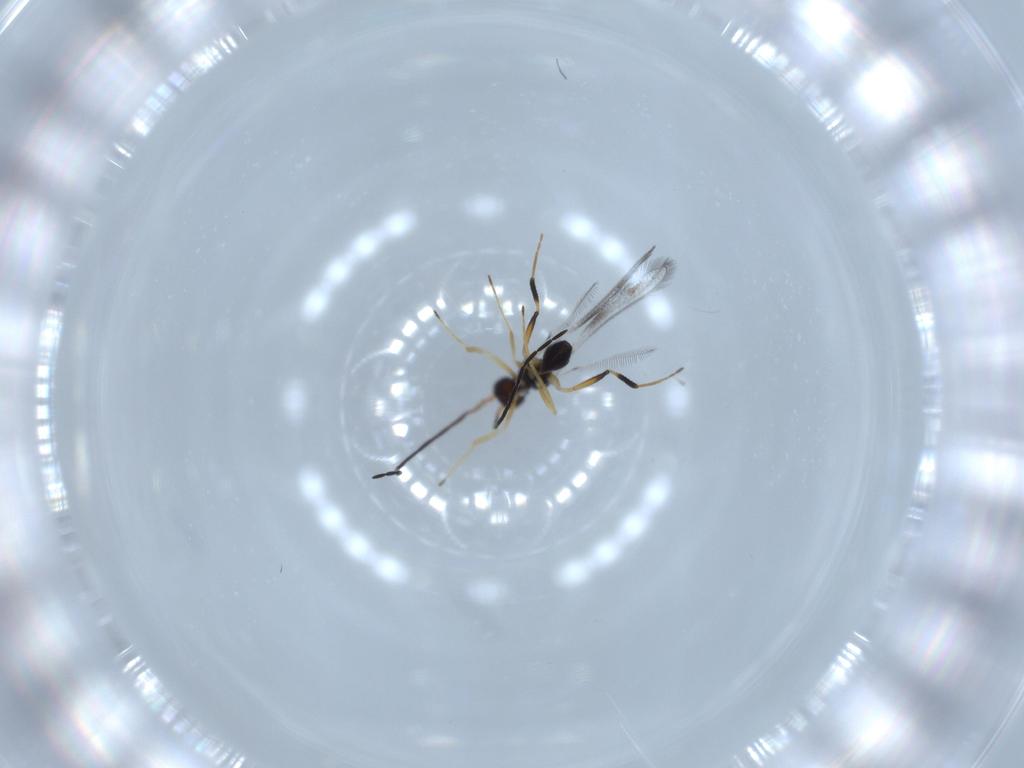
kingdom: Animalia
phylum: Arthropoda
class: Insecta
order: Hymenoptera
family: Mymaridae
